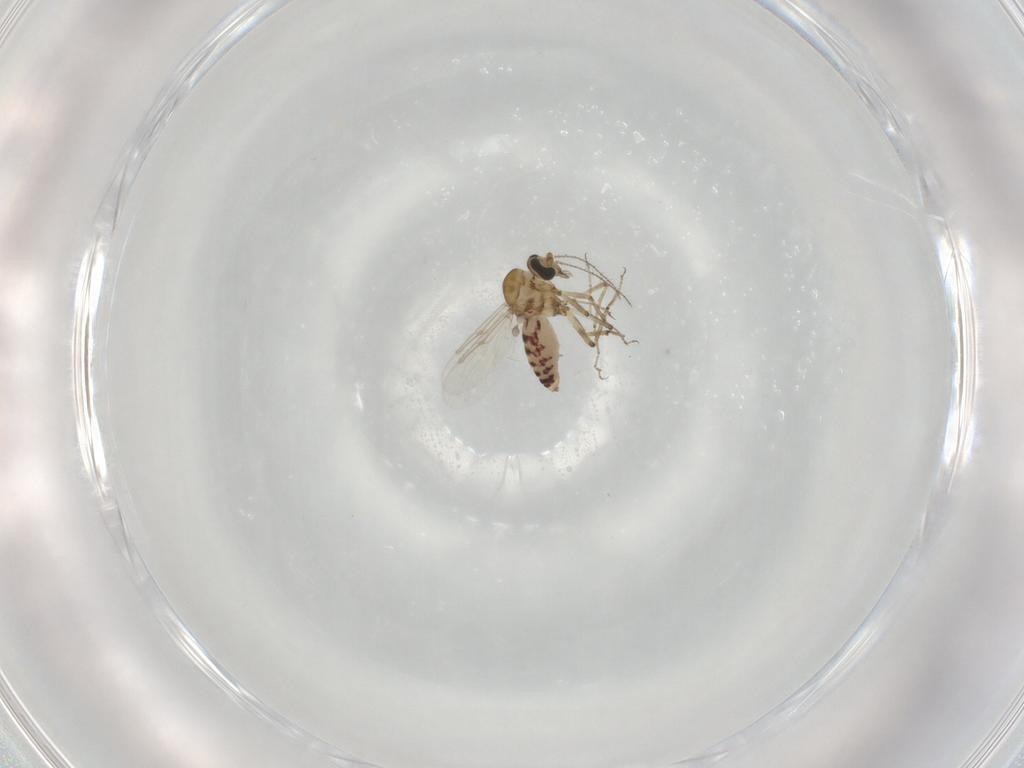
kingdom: Animalia
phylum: Arthropoda
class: Insecta
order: Diptera
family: Ceratopogonidae
